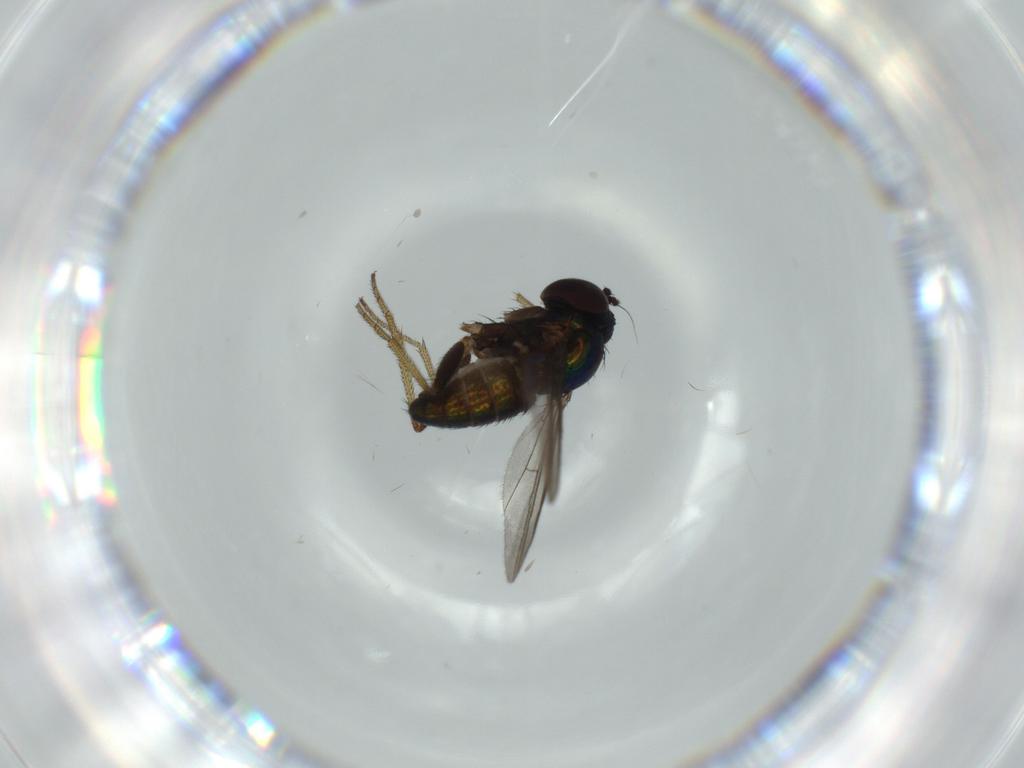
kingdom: Animalia
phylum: Arthropoda
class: Insecta
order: Diptera
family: Dolichopodidae
